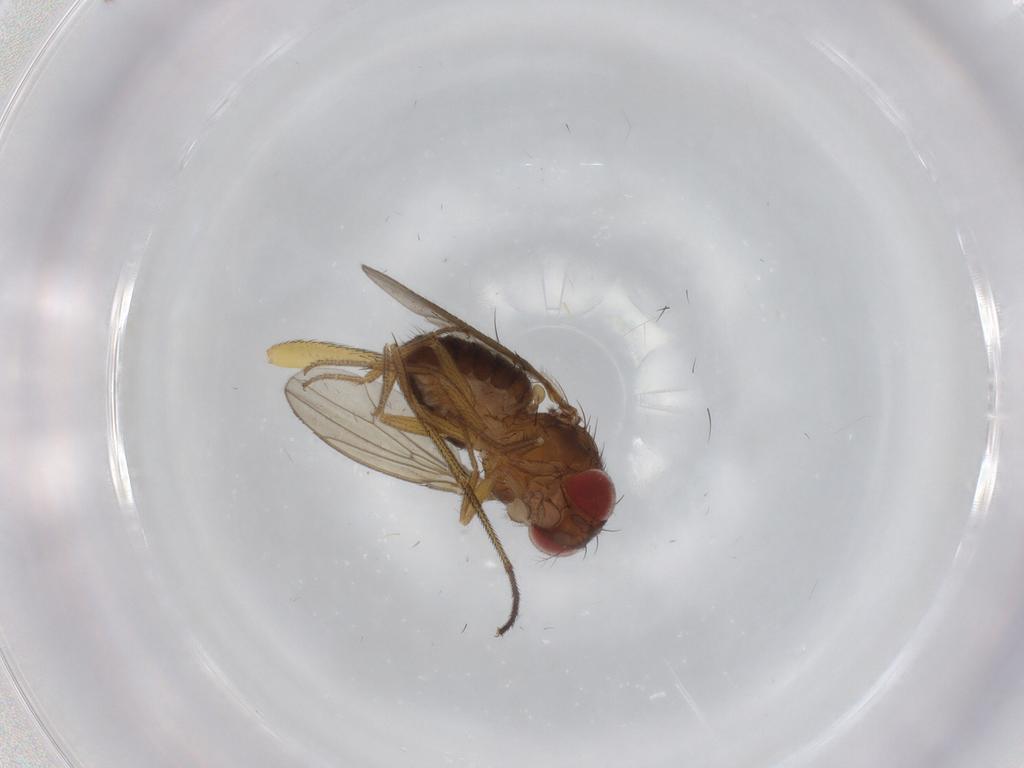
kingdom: Animalia
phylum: Arthropoda
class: Insecta
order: Diptera
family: Drosophilidae
